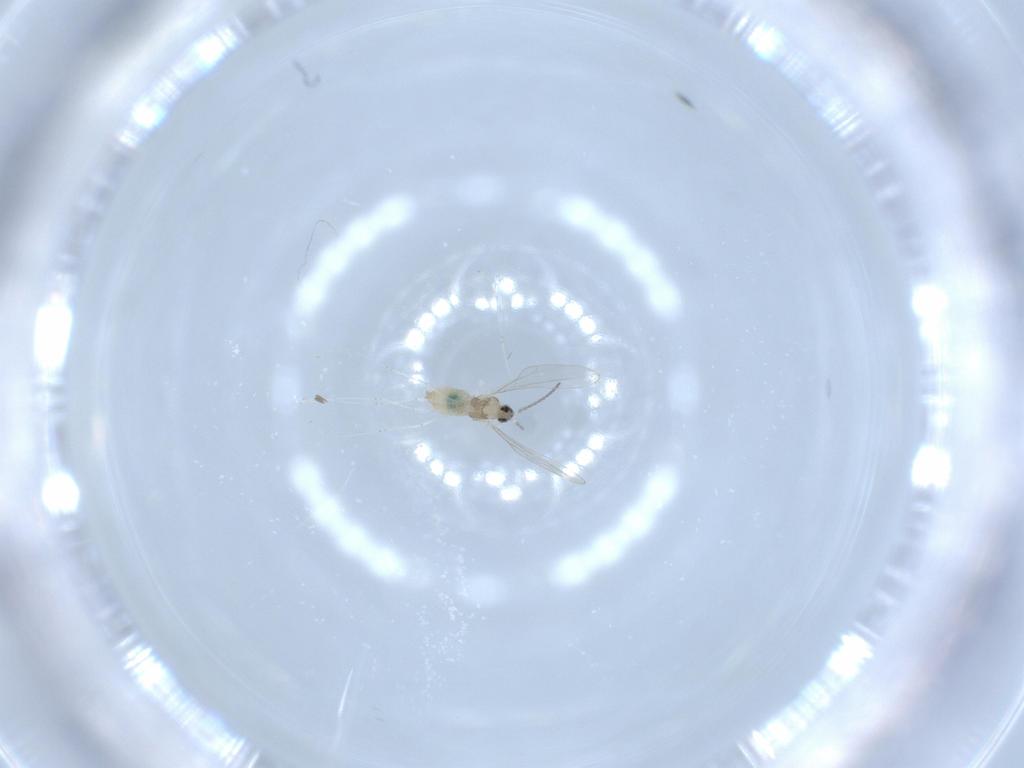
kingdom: Animalia
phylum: Arthropoda
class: Insecta
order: Diptera
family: Cecidomyiidae
